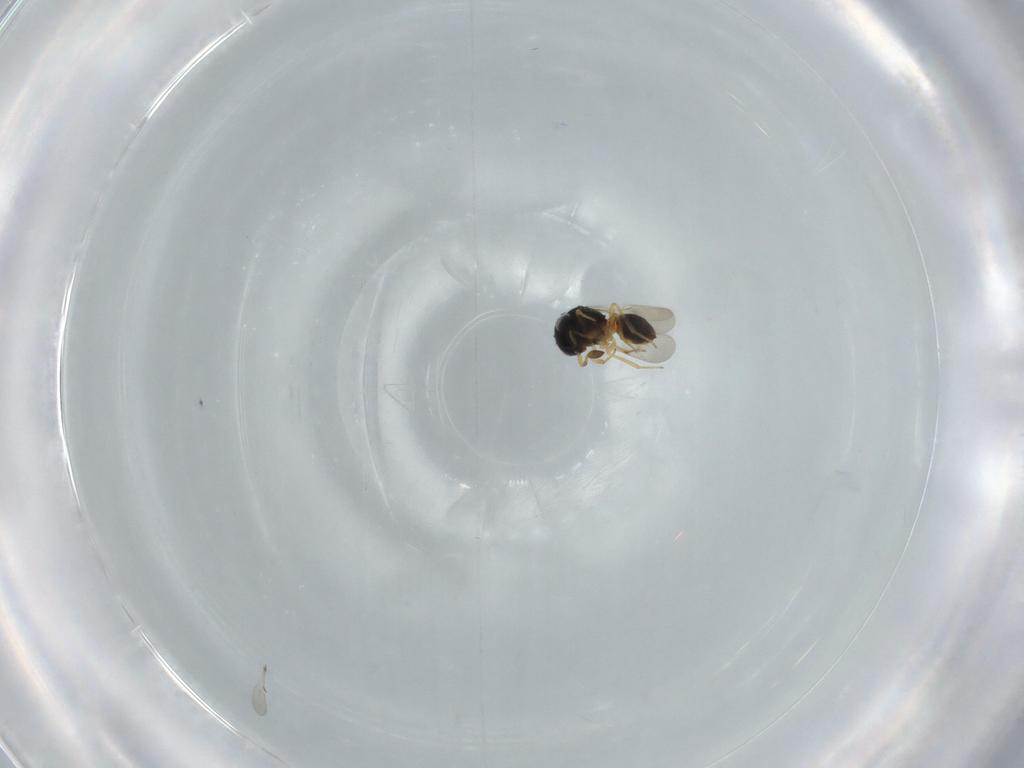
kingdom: Animalia
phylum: Arthropoda
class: Insecta
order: Hymenoptera
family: Scelionidae
